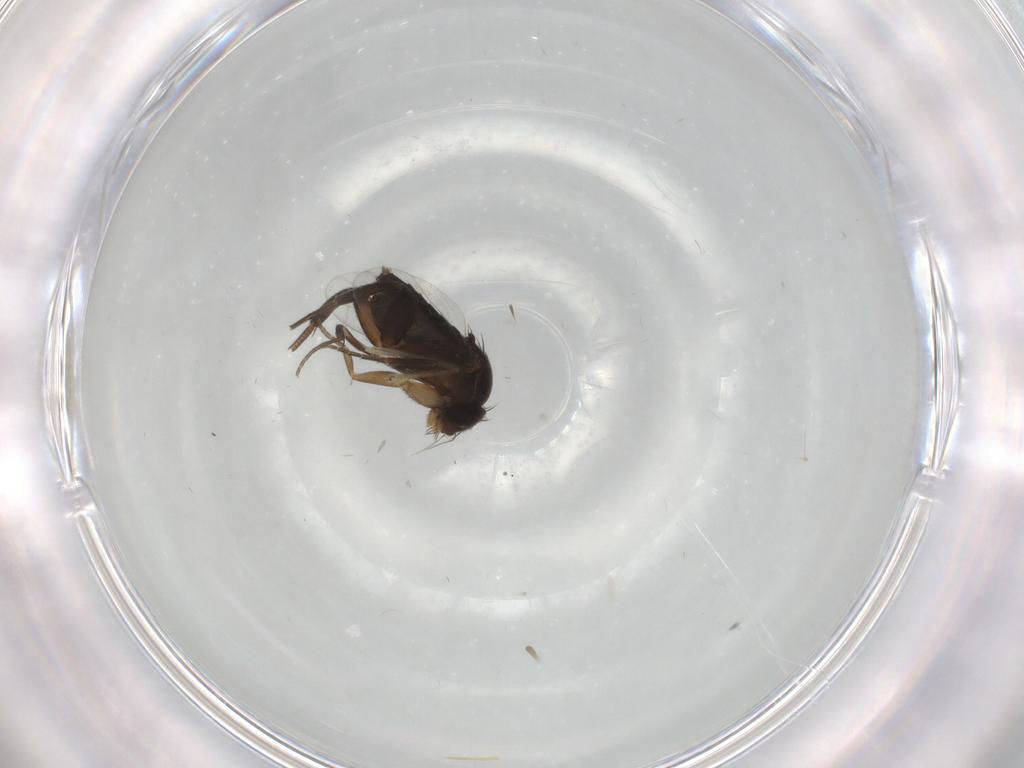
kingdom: Animalia
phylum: Arthropoda
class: Insecta
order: Diptera
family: Phoridae
